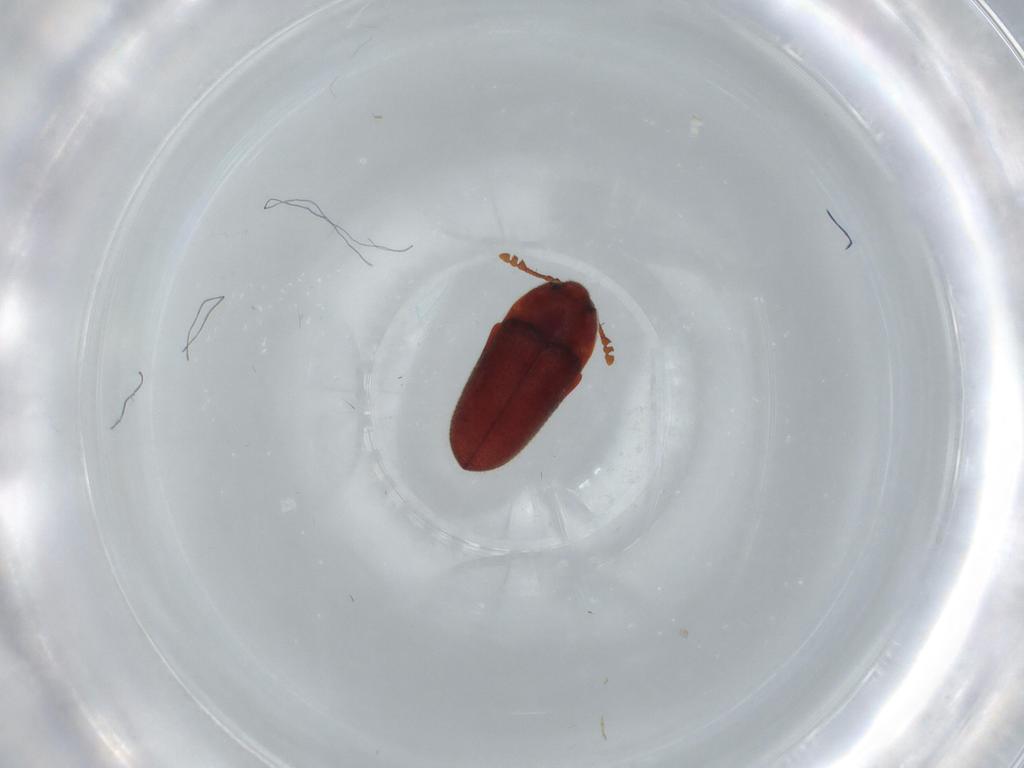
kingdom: Animalia
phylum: Arthropoda
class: Insecta
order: Coleoptera
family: Throscidae
